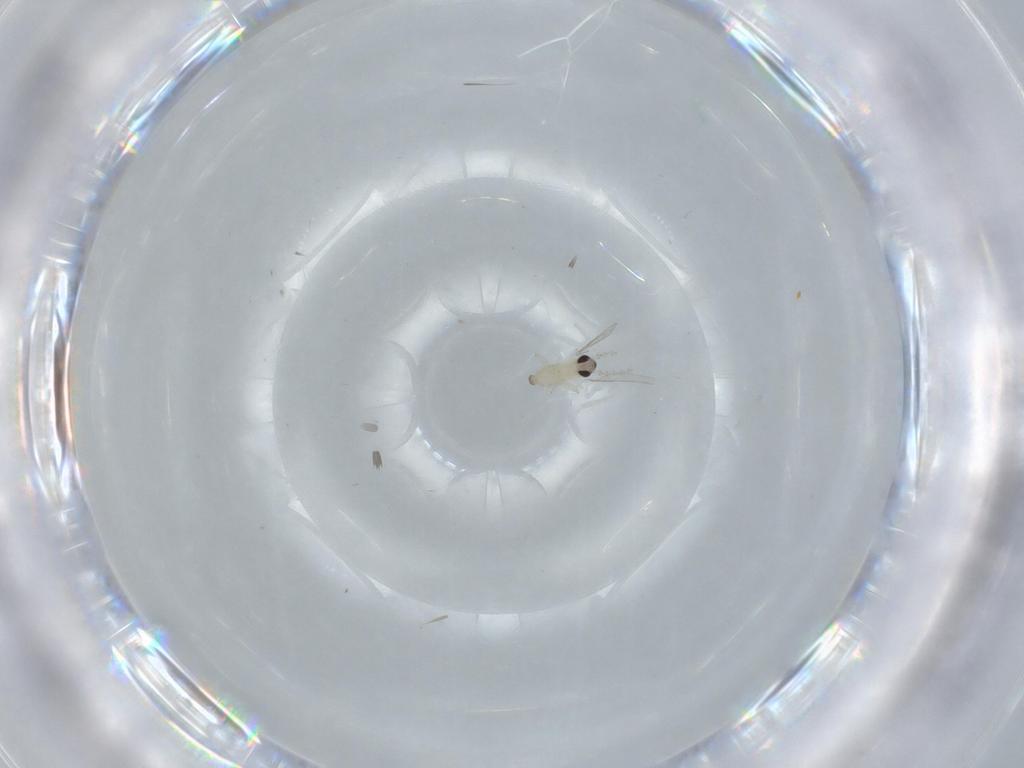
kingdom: Animalia
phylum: Arthropoda
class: Insecta
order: Diptera
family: Cecidomyiidae
